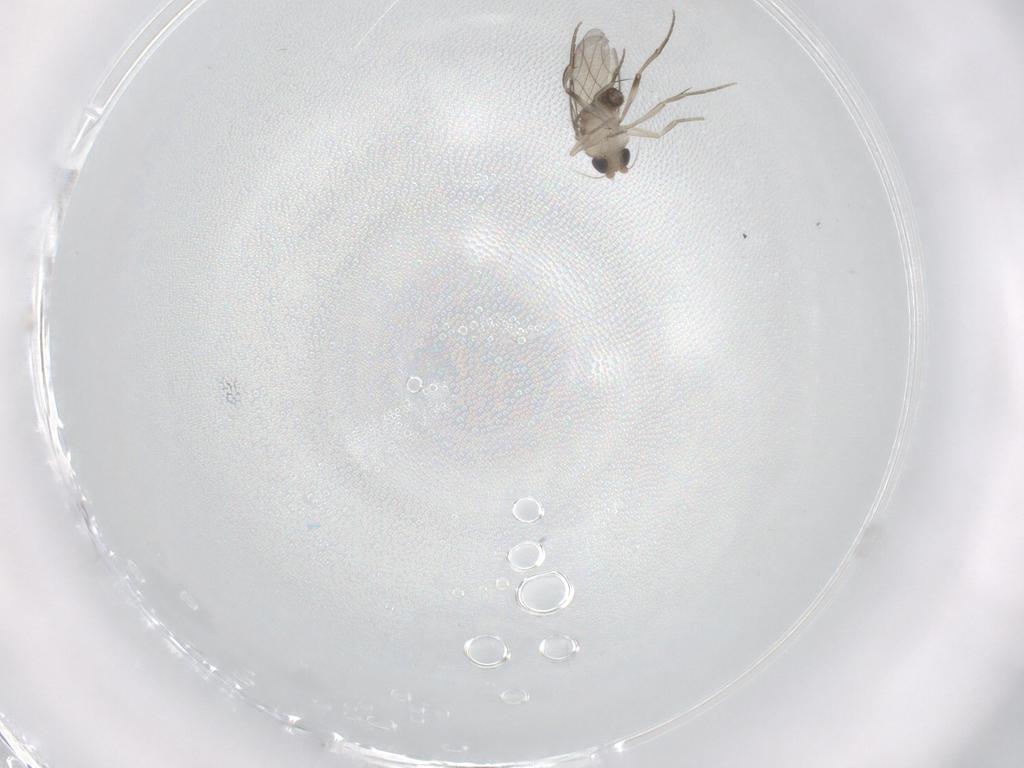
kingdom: Animalia
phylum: Arthropoda
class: Insecta
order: Diptera
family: Phoridae
